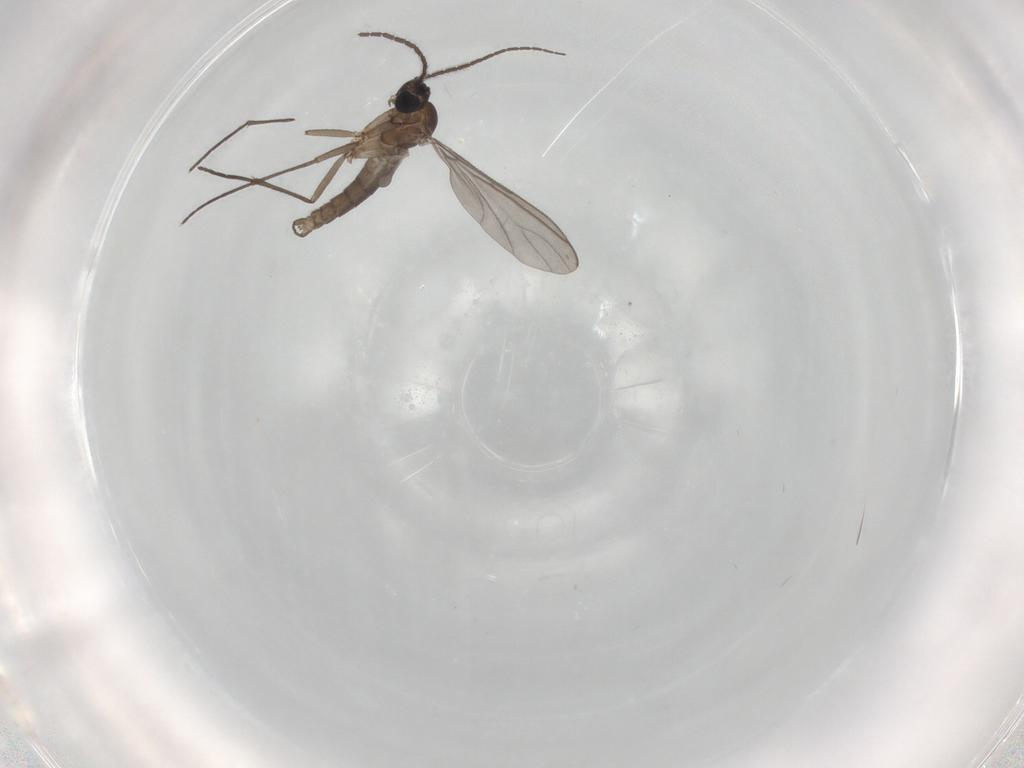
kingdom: Animalia
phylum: Arthropoda
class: Insecta
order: Diptera
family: Chironomidae
